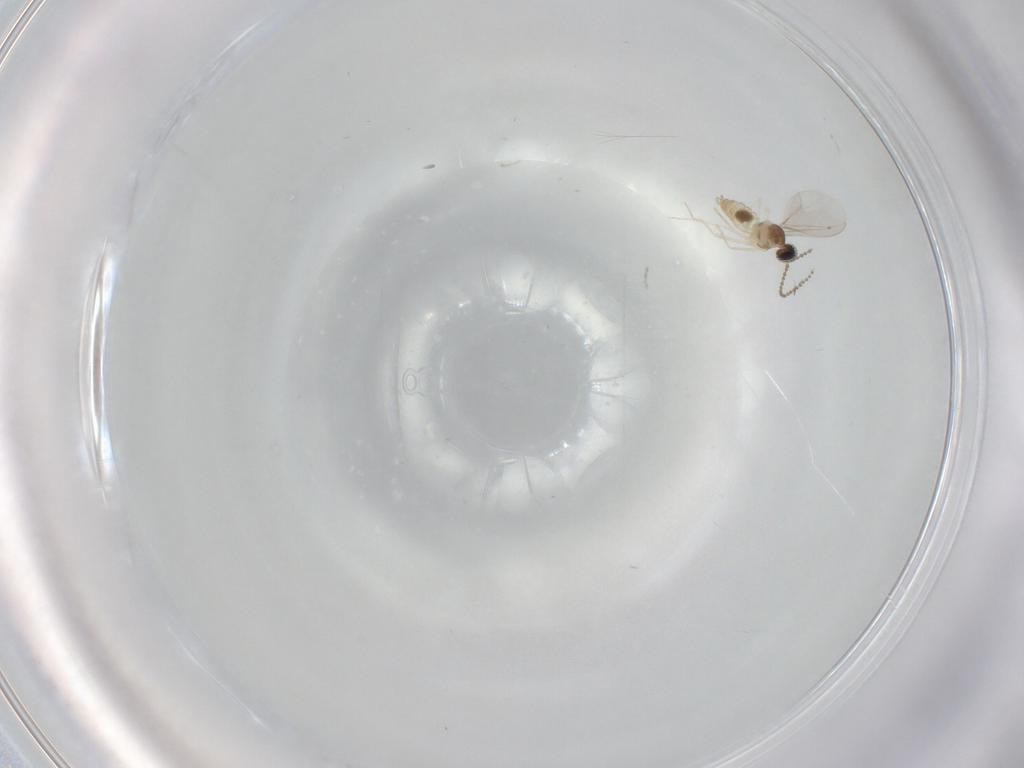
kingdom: Animalia
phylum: Arthropoda
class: Insecta
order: Diptera
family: Cecidomyiidae
